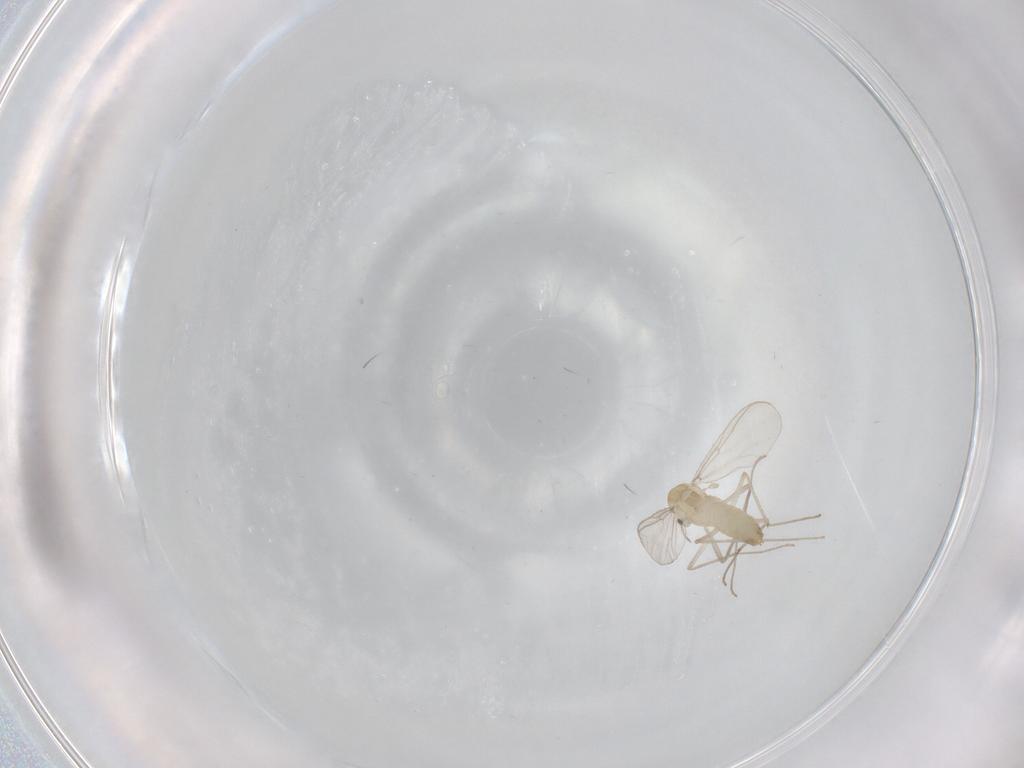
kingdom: Animalia
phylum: Arthropoda
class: Insecta
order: Diptera
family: Chironomidae
